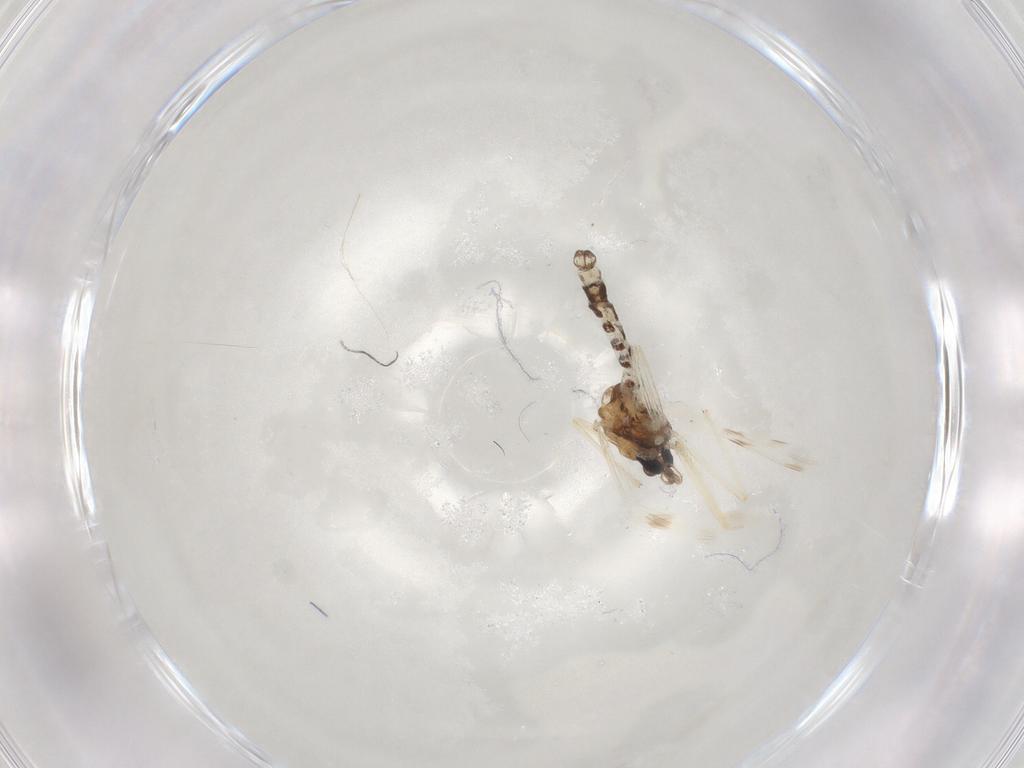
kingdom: Animalia
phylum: Arthropoda
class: Insecta
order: Diptera
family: Chironomidae
